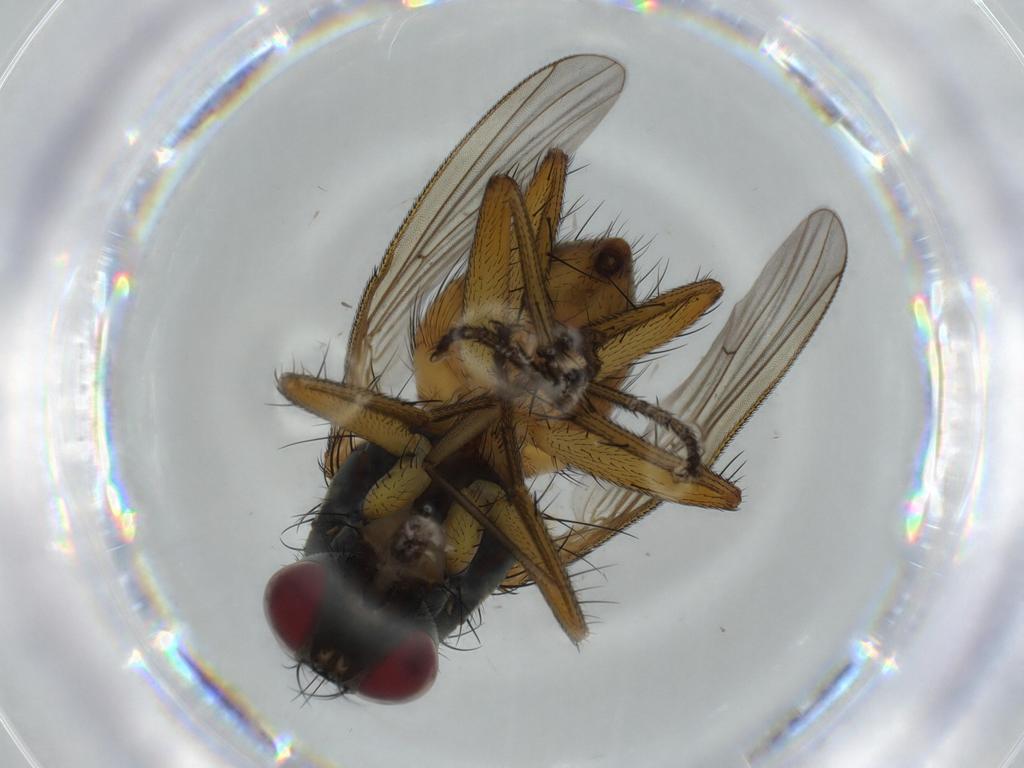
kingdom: Animalia
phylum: Arthropoda
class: Insecta
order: Diptera
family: Muscidae
